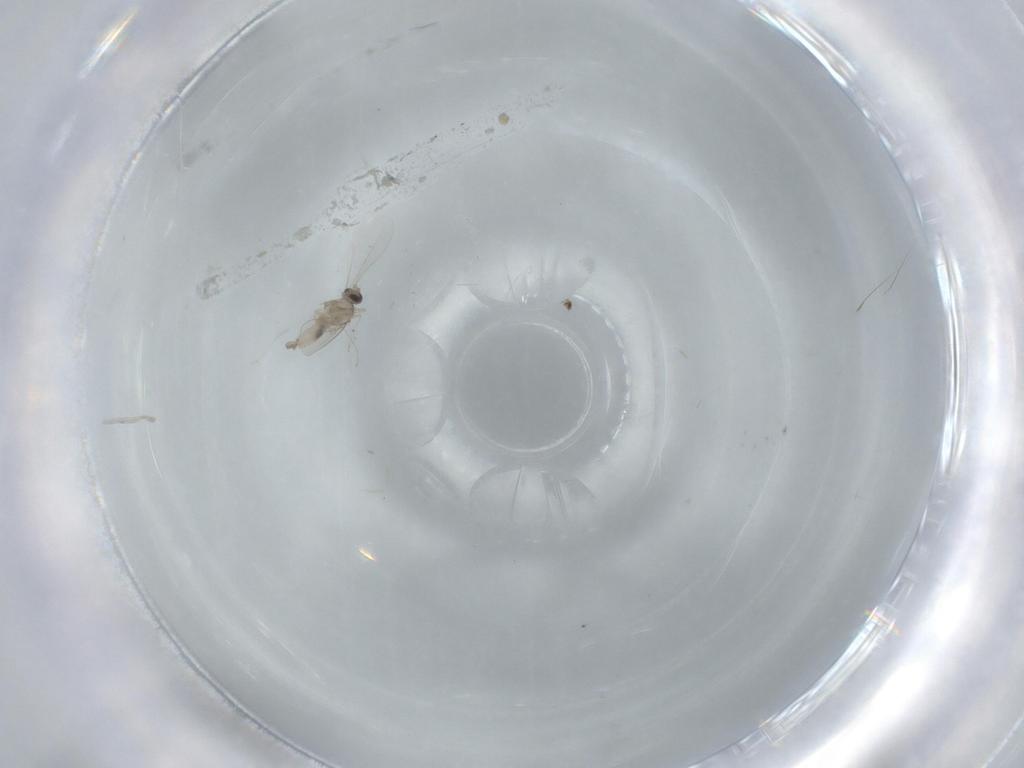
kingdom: Animalia
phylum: Arthropoda
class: Insecta
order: Diptera
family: Cecidomyiidae
